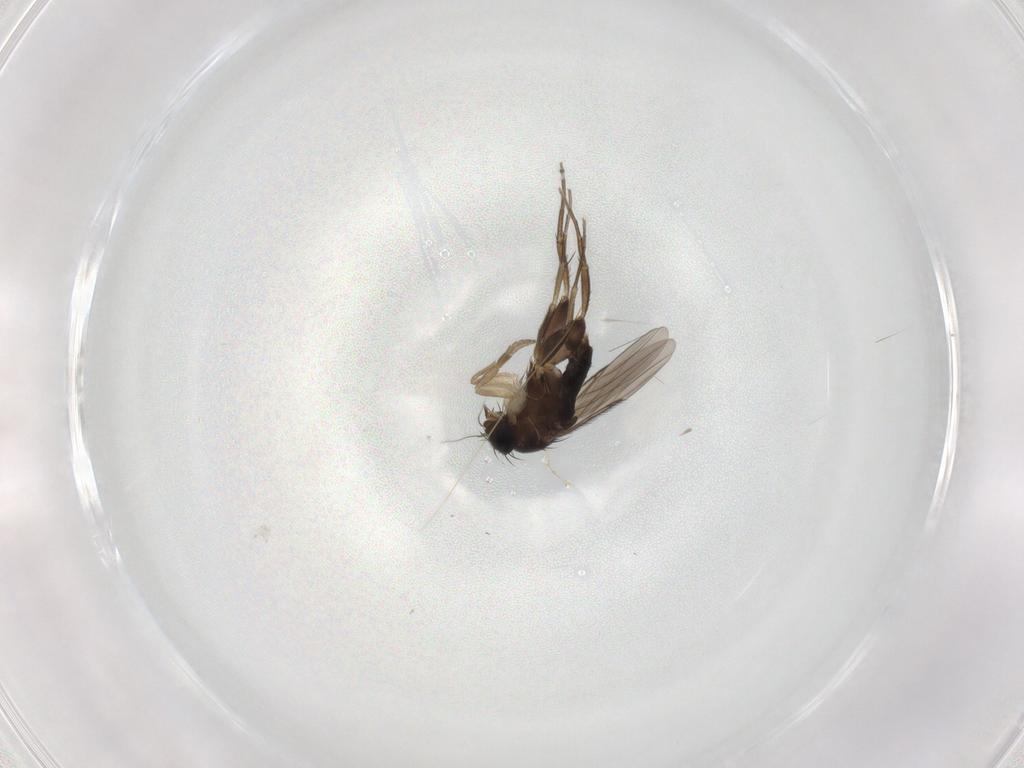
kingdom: Animalia
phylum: Arthropoda
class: Insecta
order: Diptera
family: Phoridae
